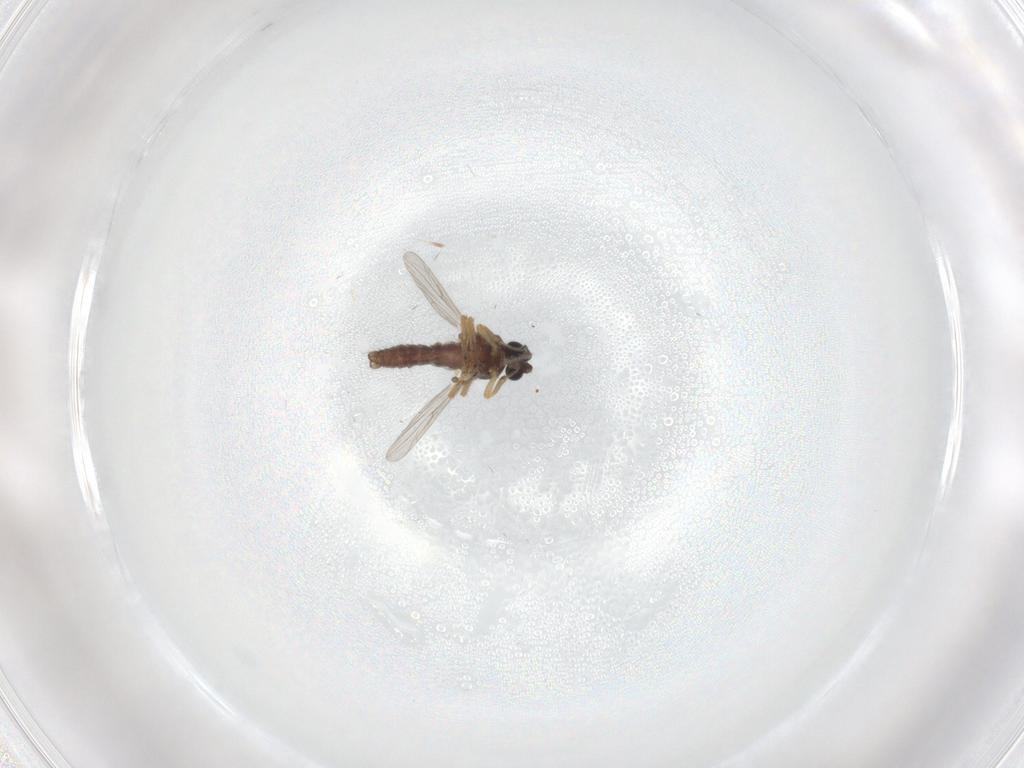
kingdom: Animalia
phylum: Arthropoda
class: Insecta
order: Diptera
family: Ceratopogonidae
